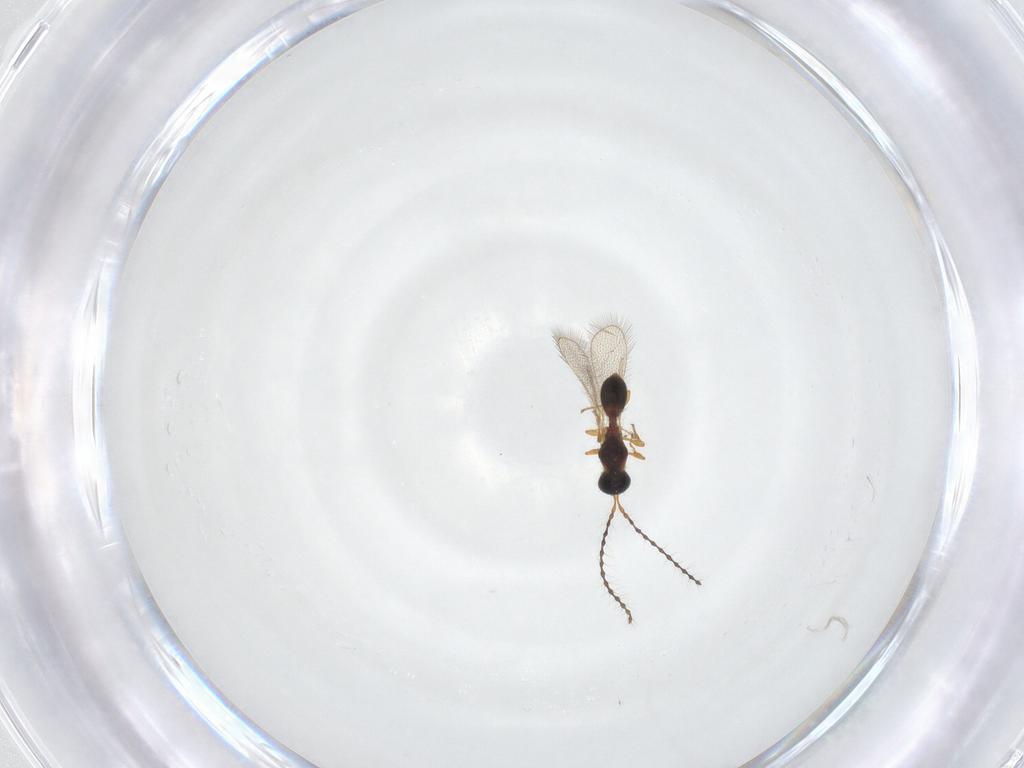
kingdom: Animalia
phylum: Arthropoda
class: Insecta
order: Hymenoptera
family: Diapriidae
